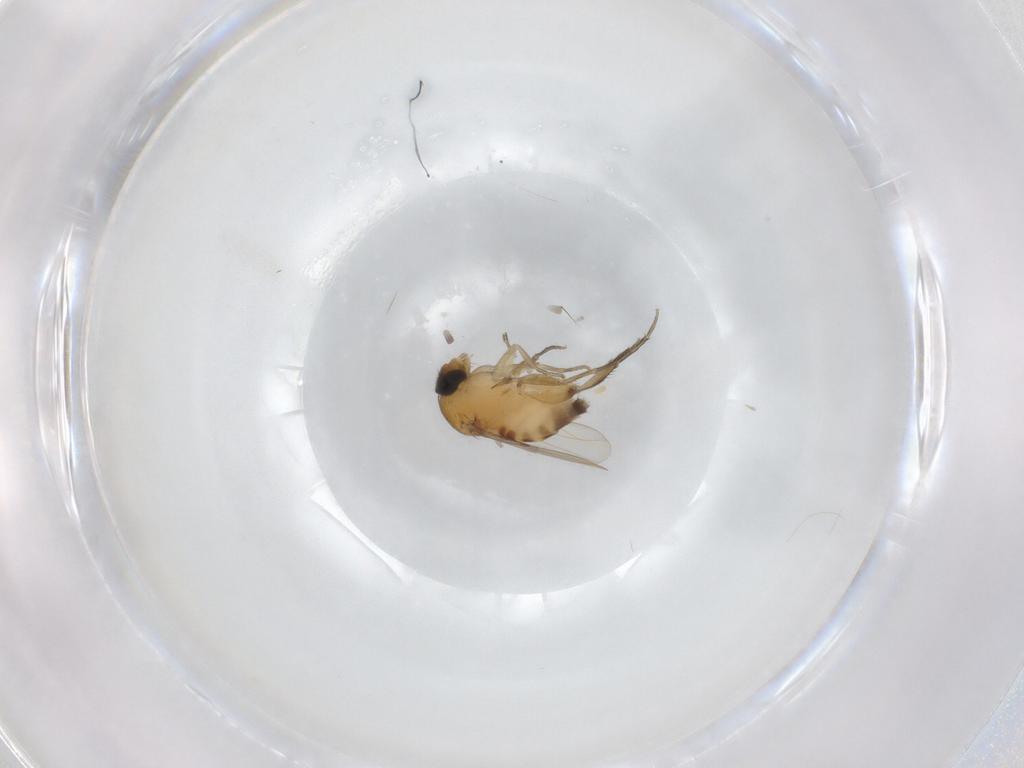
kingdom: Animalia
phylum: Arthropoda
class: Insecta
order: Diptera
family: Phoridae
